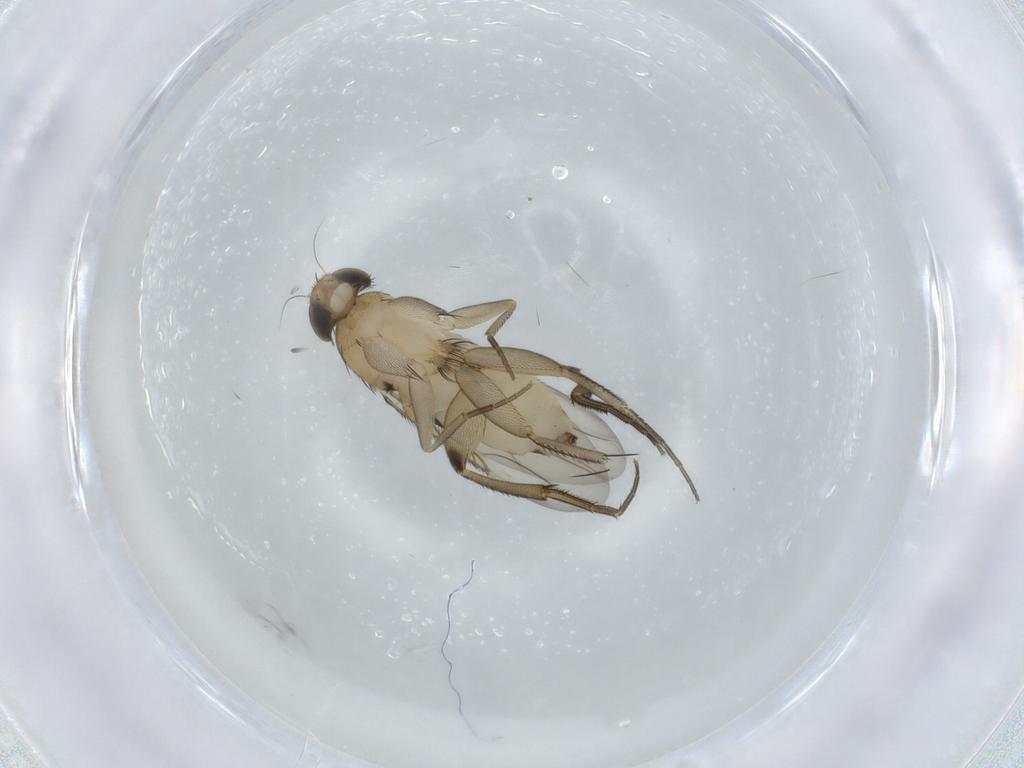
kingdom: Animalia
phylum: Arthropoda
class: Insecta
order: Diptera
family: Phoridae
